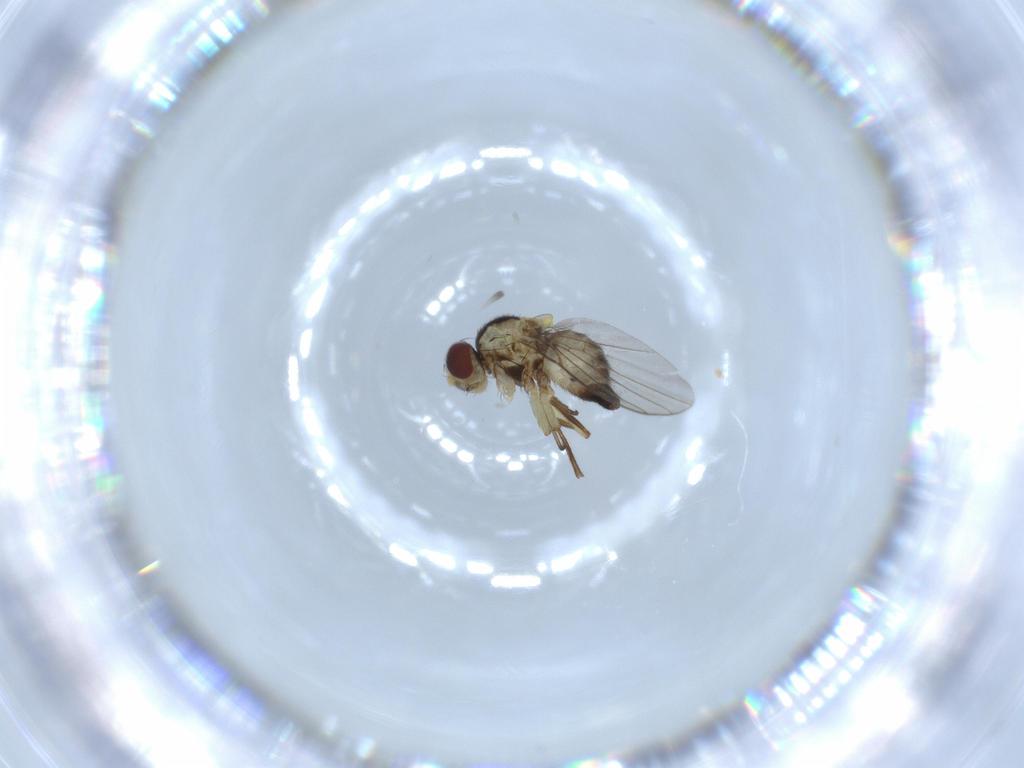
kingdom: Animalia
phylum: Arthropoda
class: Insecta
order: Diptera
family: Agromyzidae
